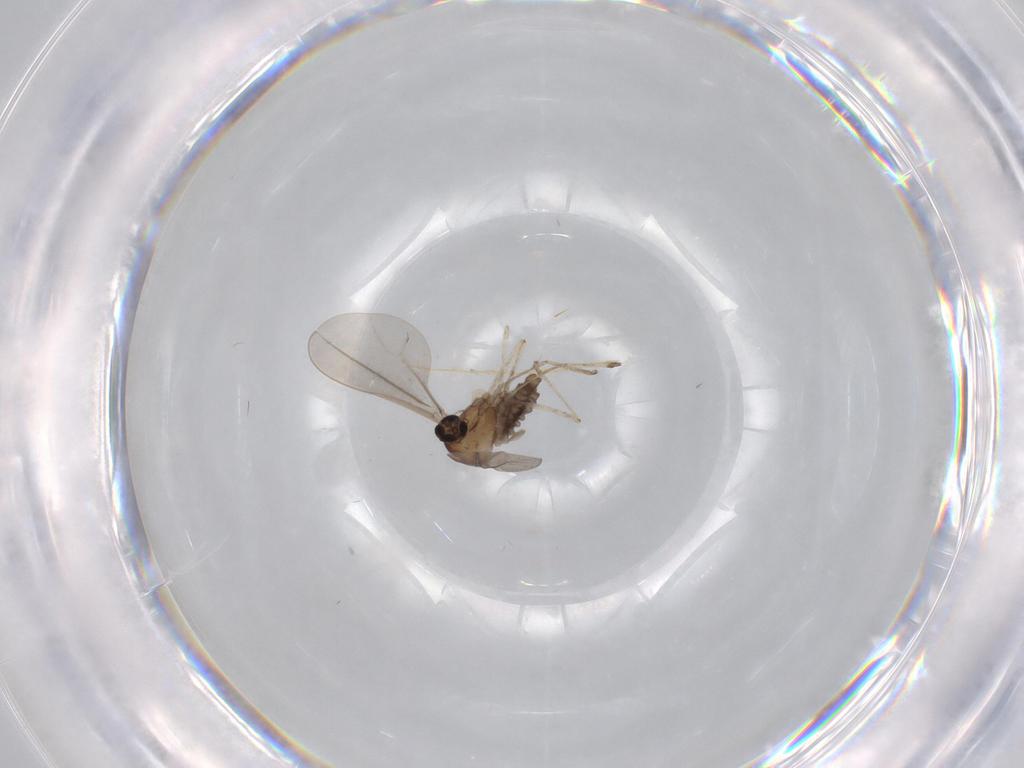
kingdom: Animalia
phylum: Arthropoda
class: Insecta
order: Diptera
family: Cecidomyiidae
